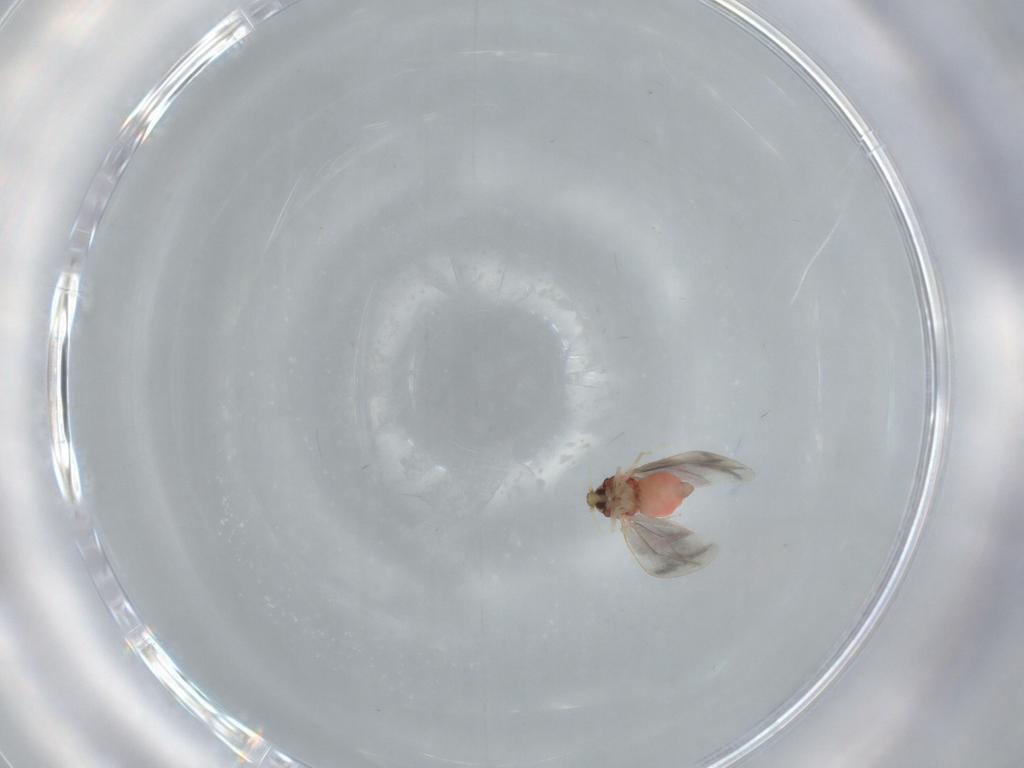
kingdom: Animalia
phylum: Arthropoda
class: Insecta
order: Hemiptera
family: Aleyrodidae
